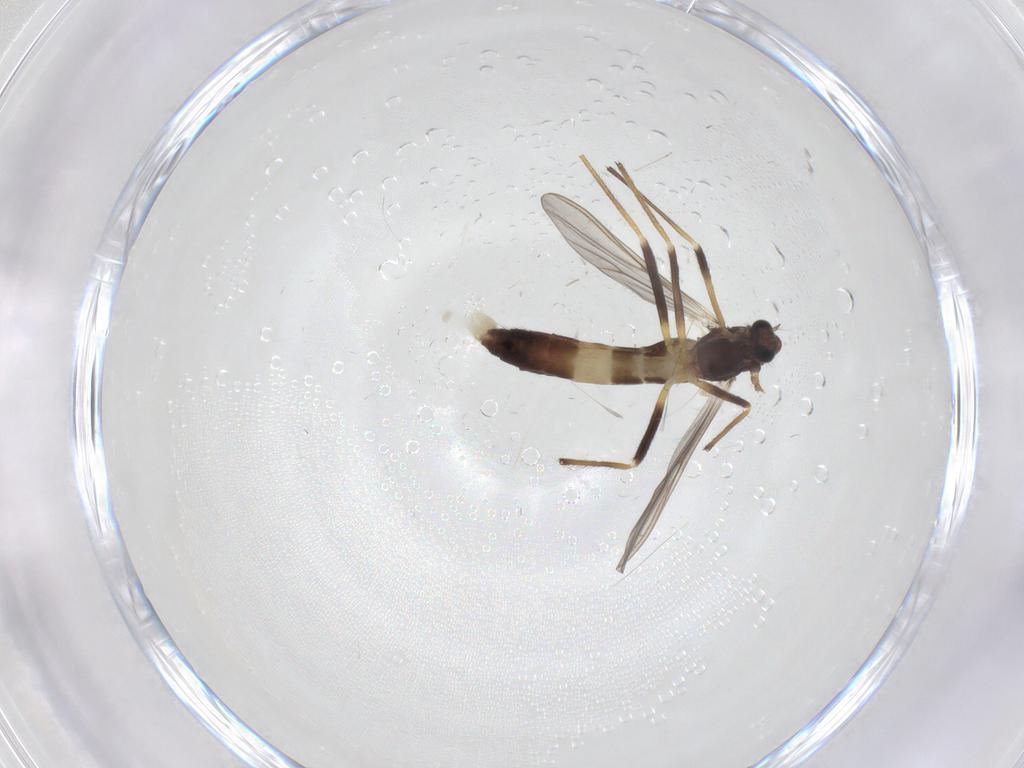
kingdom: Animalia
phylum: Arthropoda
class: Insecta
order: Diptera
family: Chironomidae
